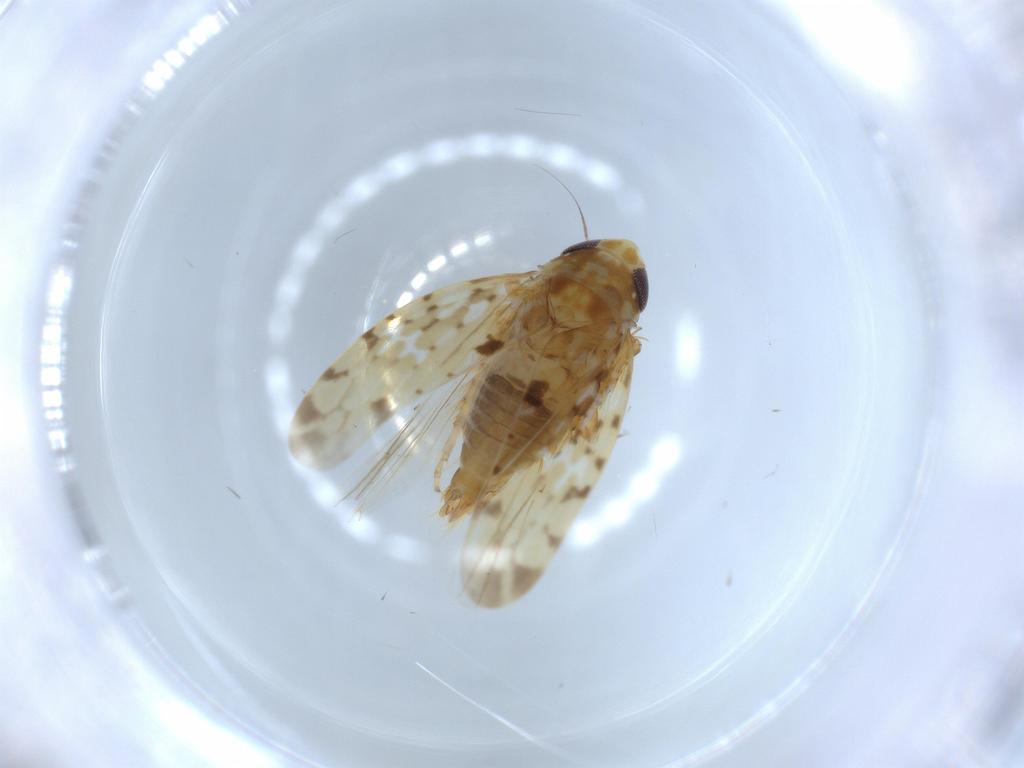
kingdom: Animalia
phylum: Arthropoda
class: Insecta
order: Hemiptera
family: Cicadellidae
